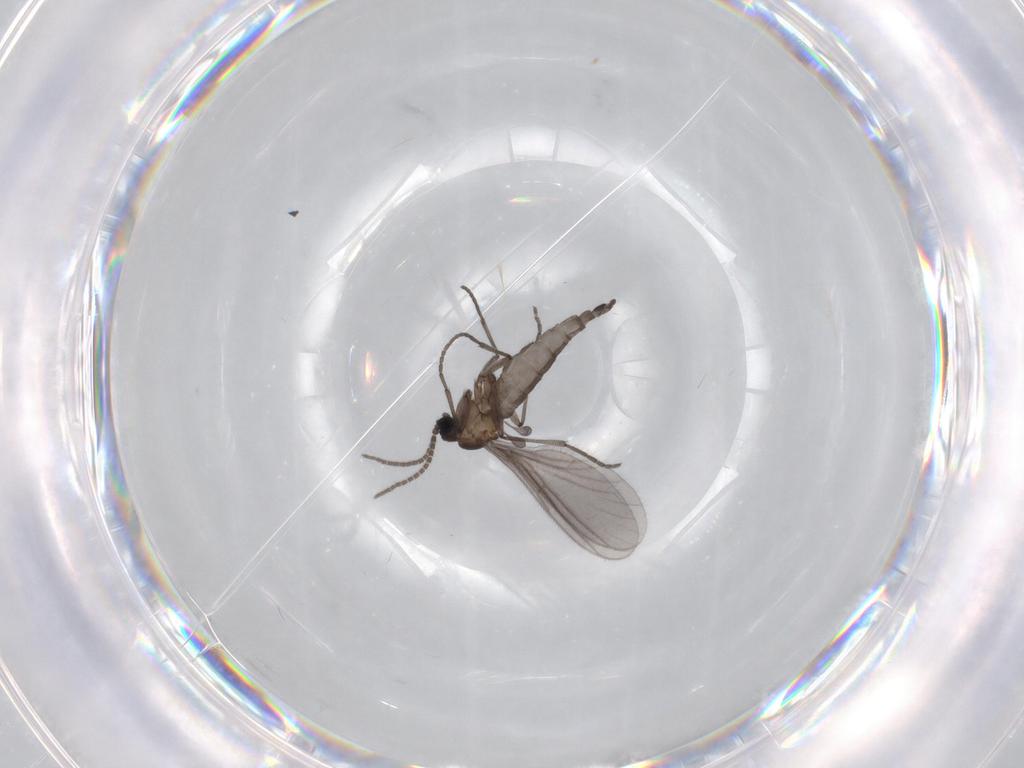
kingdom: Animalia
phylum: Arthropoda
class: Insecta
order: Diptera
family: Sciaridae
